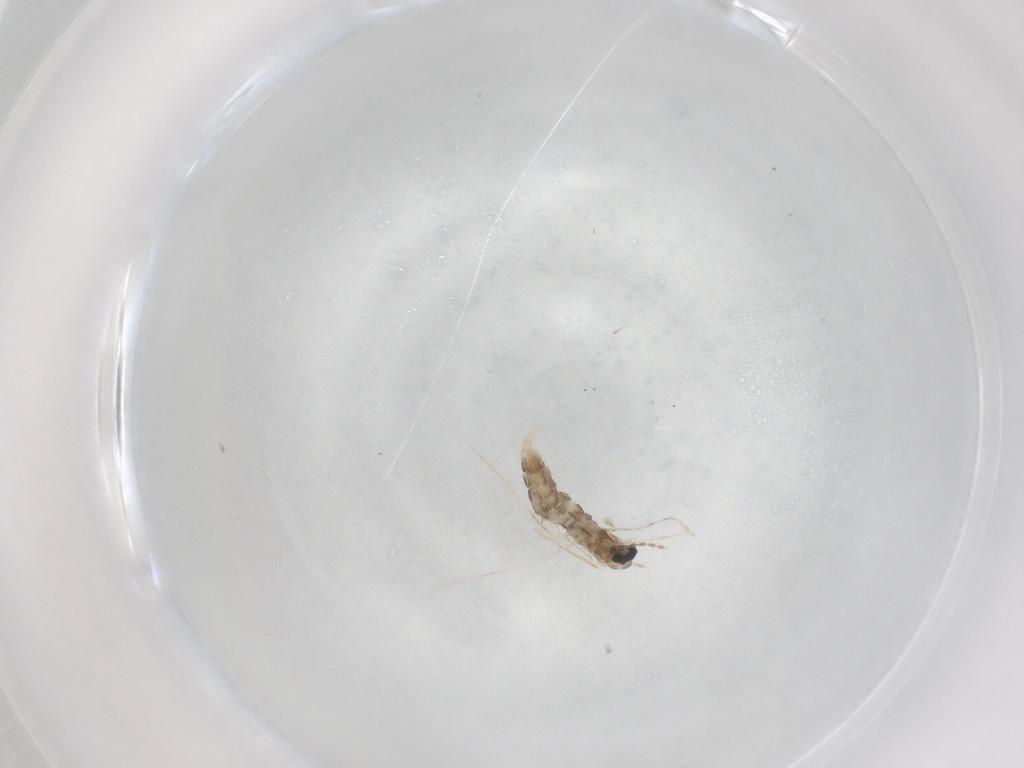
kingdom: Animalia
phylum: Arthropoda
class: Insecta
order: Diptera
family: Cecidomyiidae
